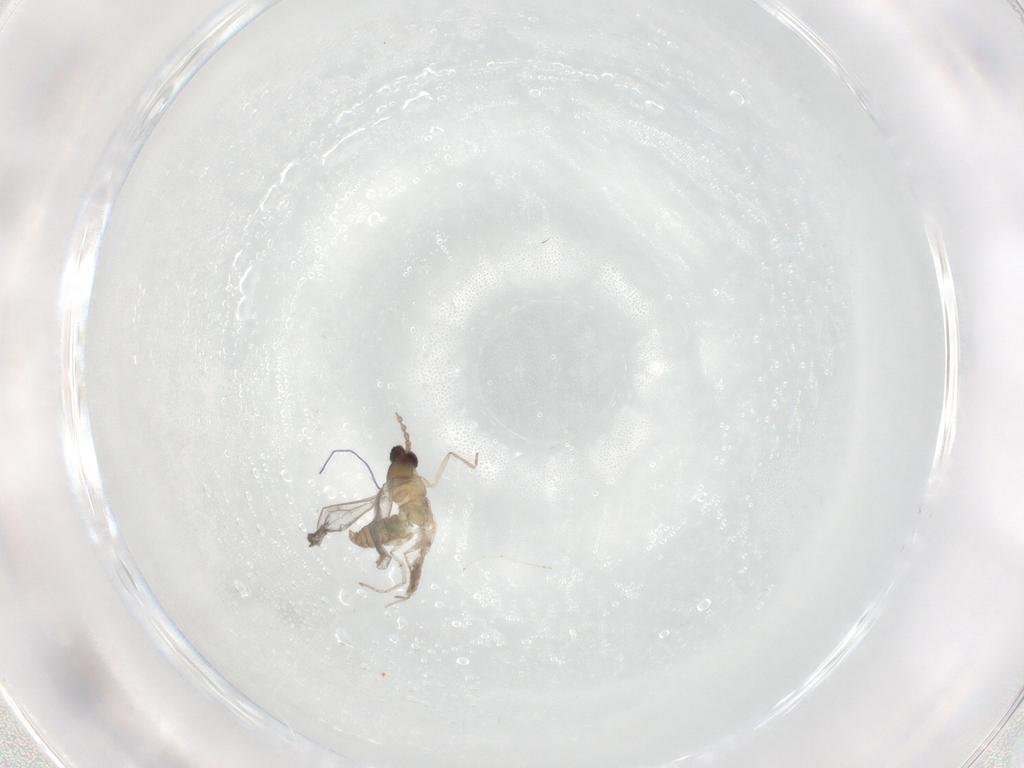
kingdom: Animalia
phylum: Arthropoda
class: Insecta
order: Diptera
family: Cecidomyiidae
